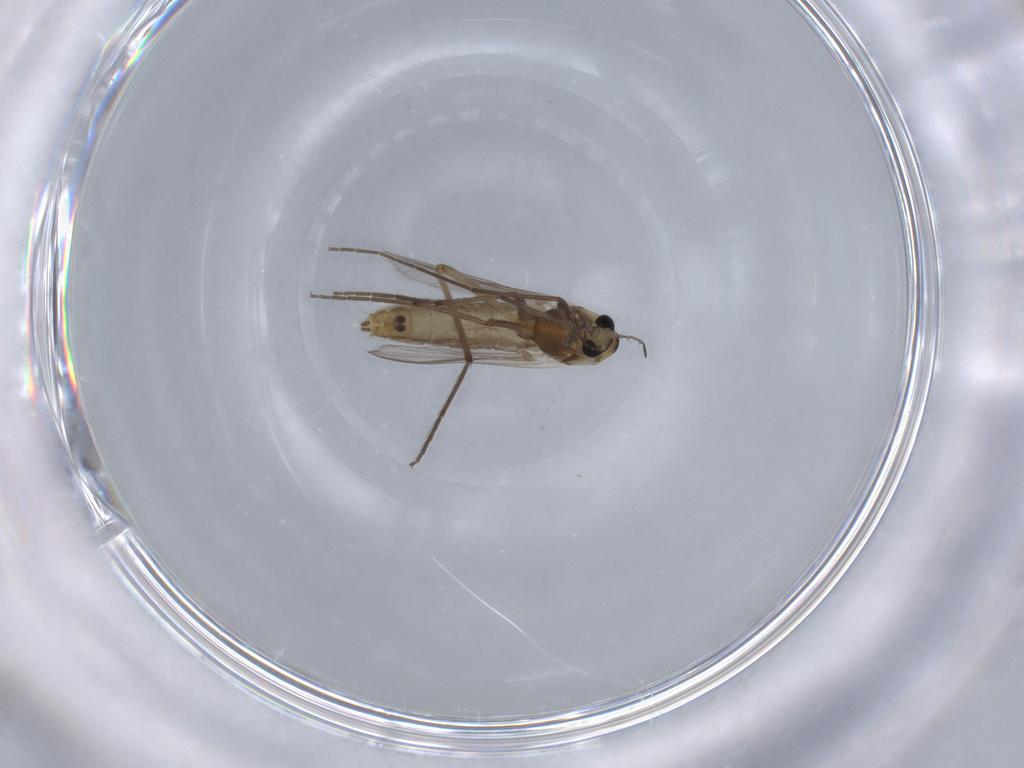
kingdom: Animalia
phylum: Arthropoda
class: Insecta
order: Diptera
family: Chironomidae
